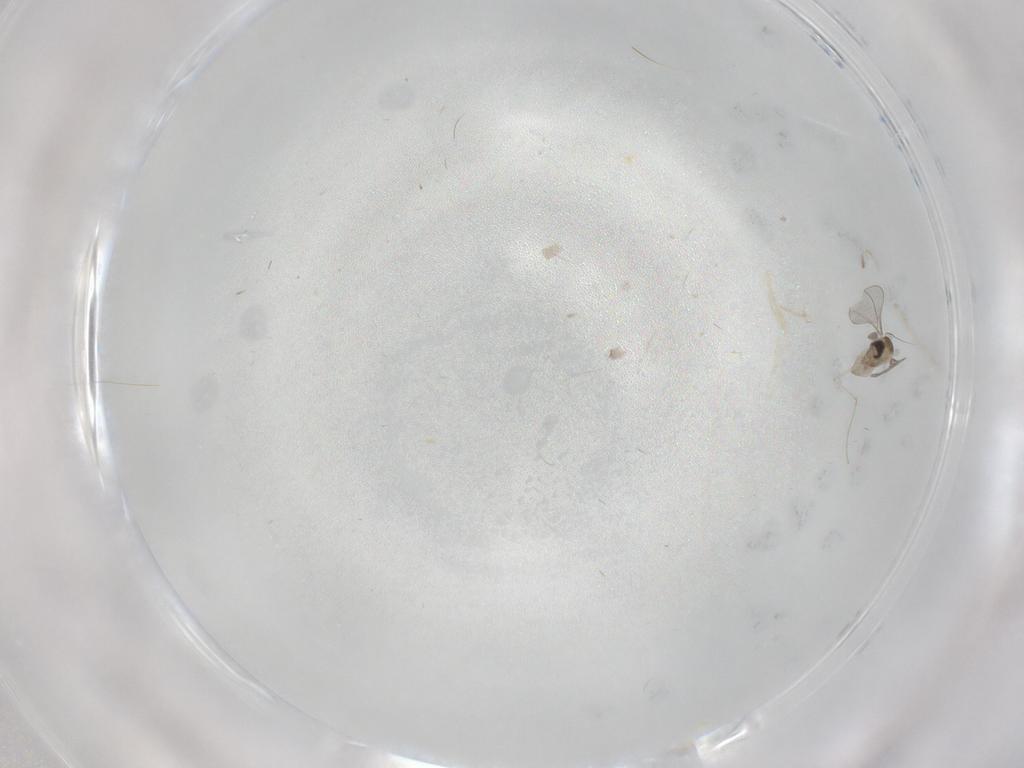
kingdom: Animalia
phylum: Arthropoda
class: Insecta
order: Diptera
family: Cecidomyiidae
